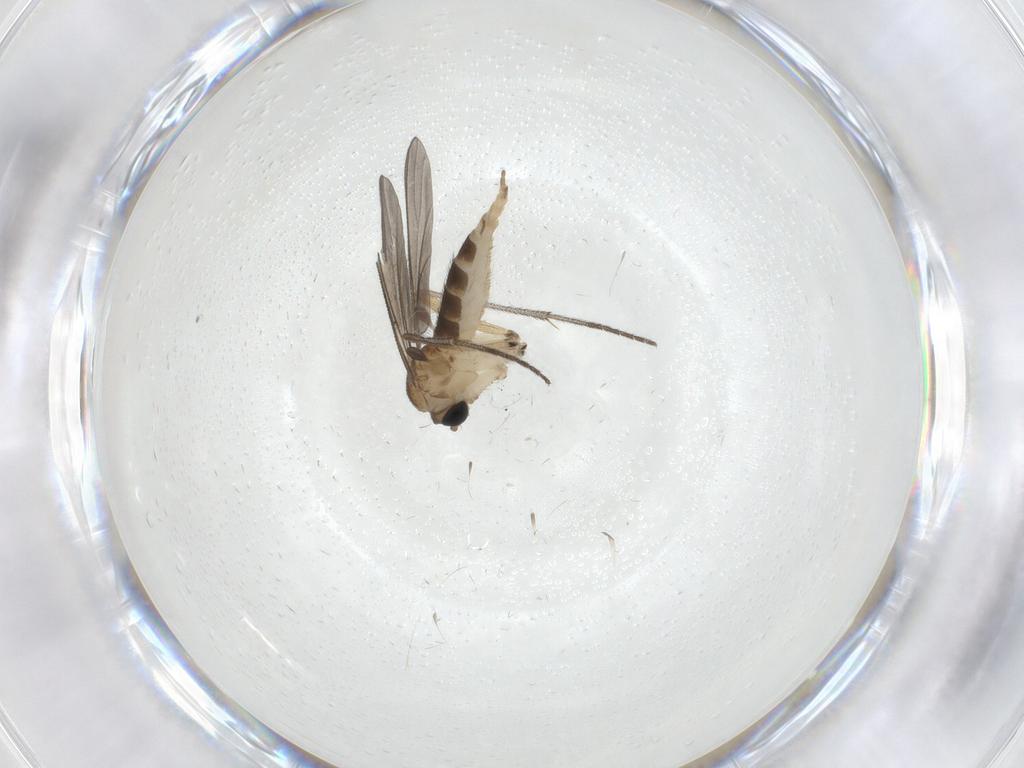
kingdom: Animalia
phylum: Arthropoda
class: Insecta
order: Diptera
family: Sciaridae
